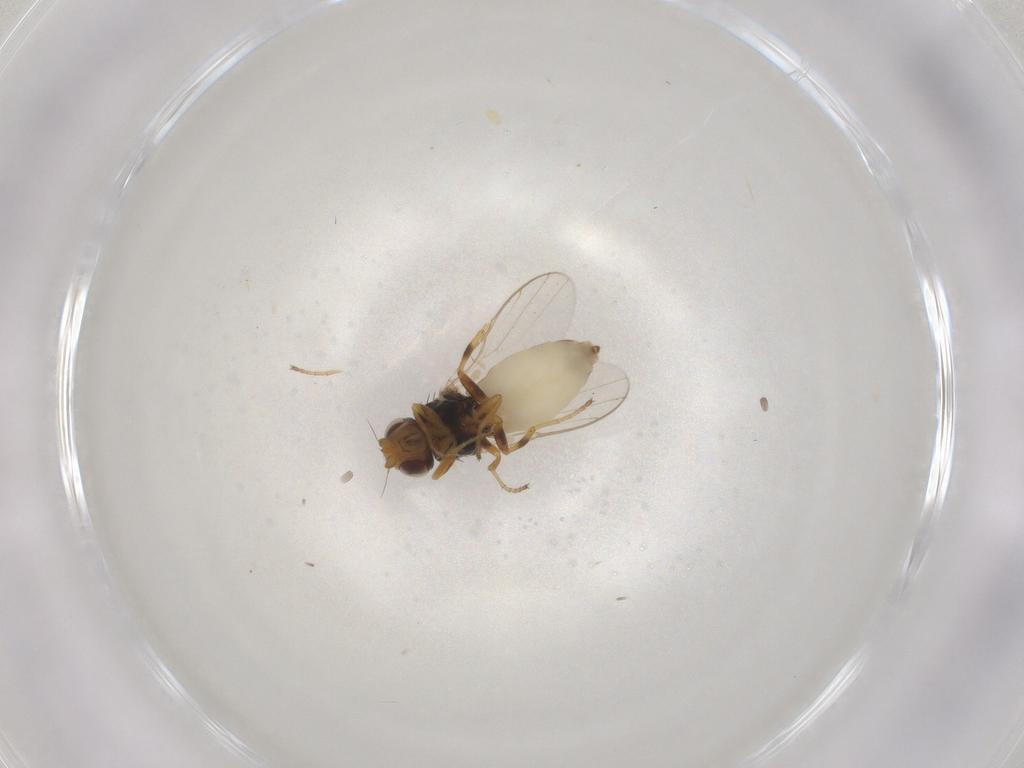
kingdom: Animalia
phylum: Arthropoda
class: Insecta
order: Diptera
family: Chloropidae
